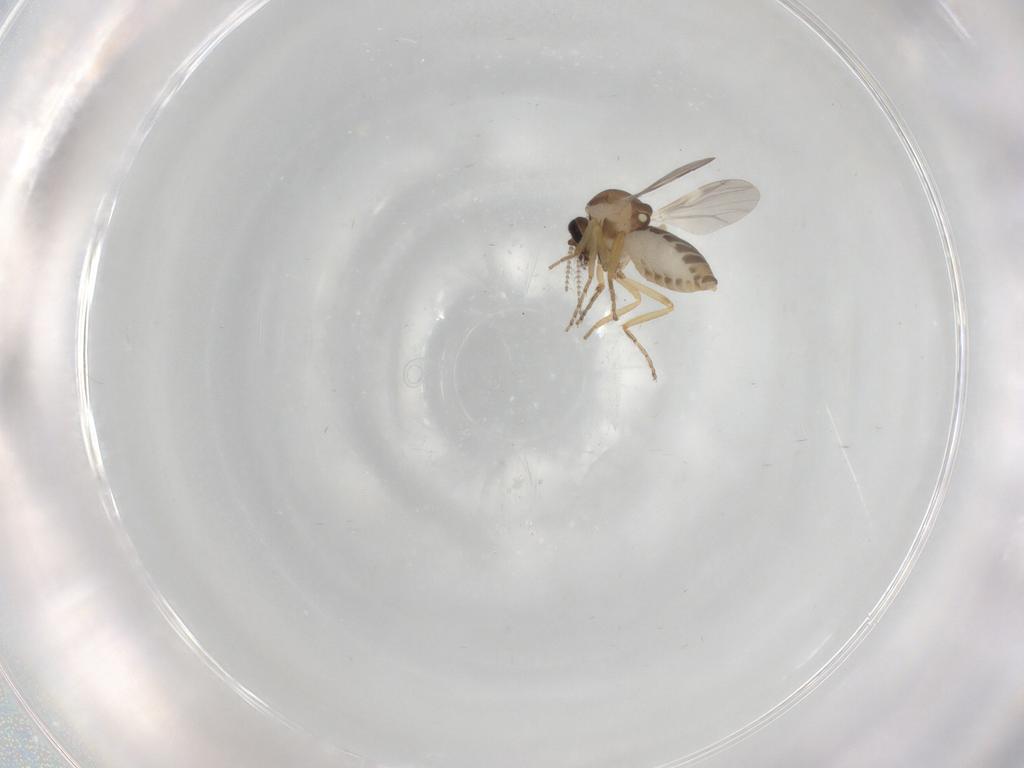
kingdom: Animalia
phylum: Arthropoda
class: Insecta
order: Diptera
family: Ceratopogonidae
